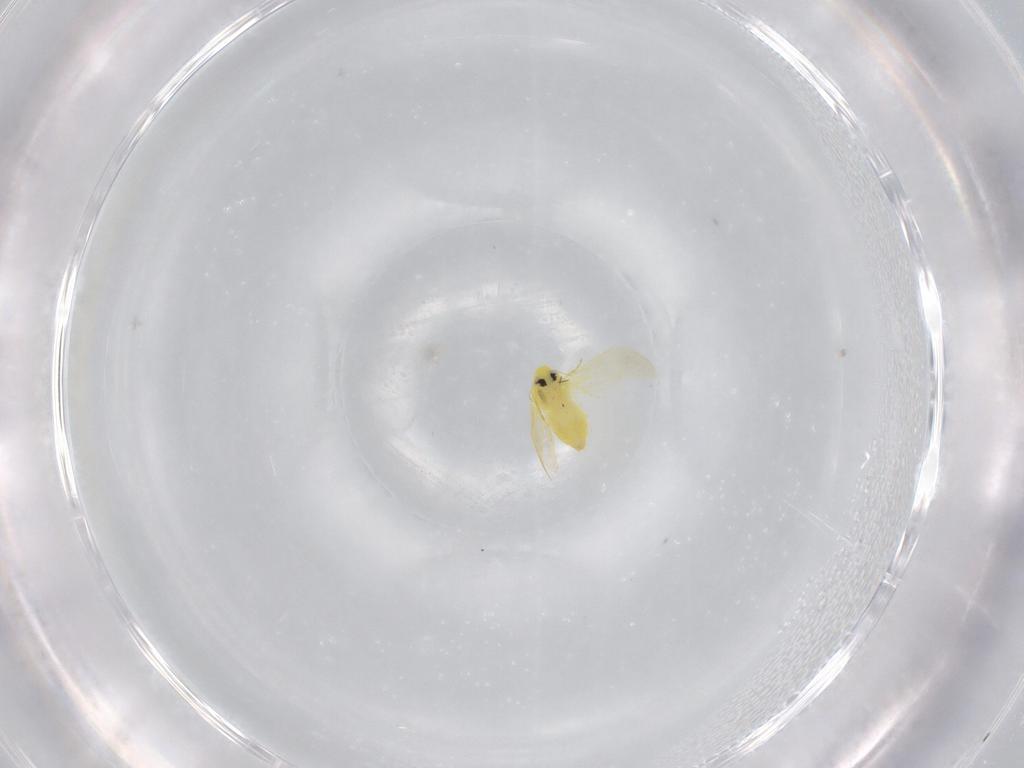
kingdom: Animalia
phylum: Arthropoda
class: Insecta
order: Hemiptera
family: Aleyrodidae
